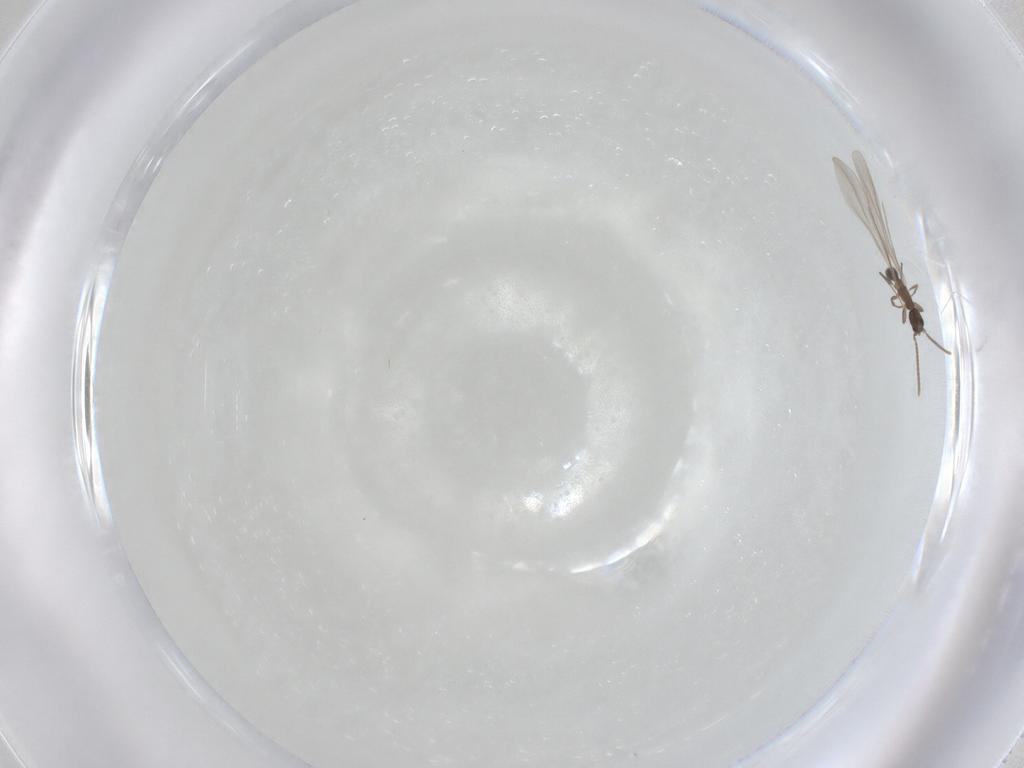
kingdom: Animalia
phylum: Arthropoda
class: Insecta
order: Hymenoptera
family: Formicidae
